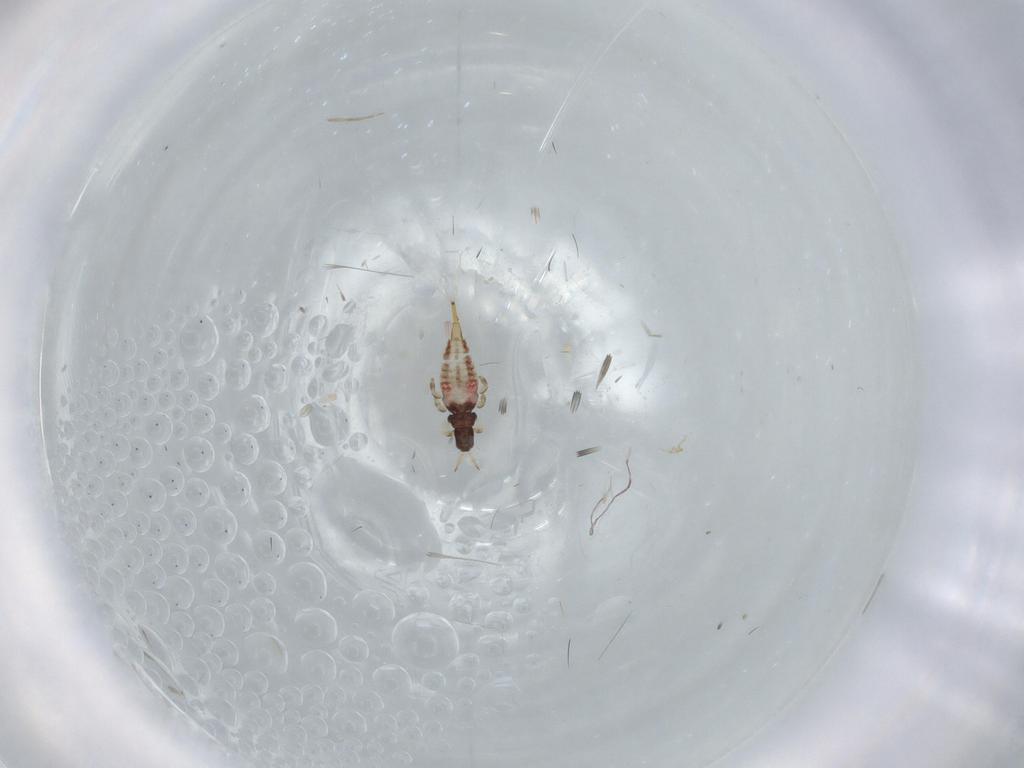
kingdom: Animalia
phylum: Arthropoda
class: Insecta
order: Thysanoptera
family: Phlaeothripidae
